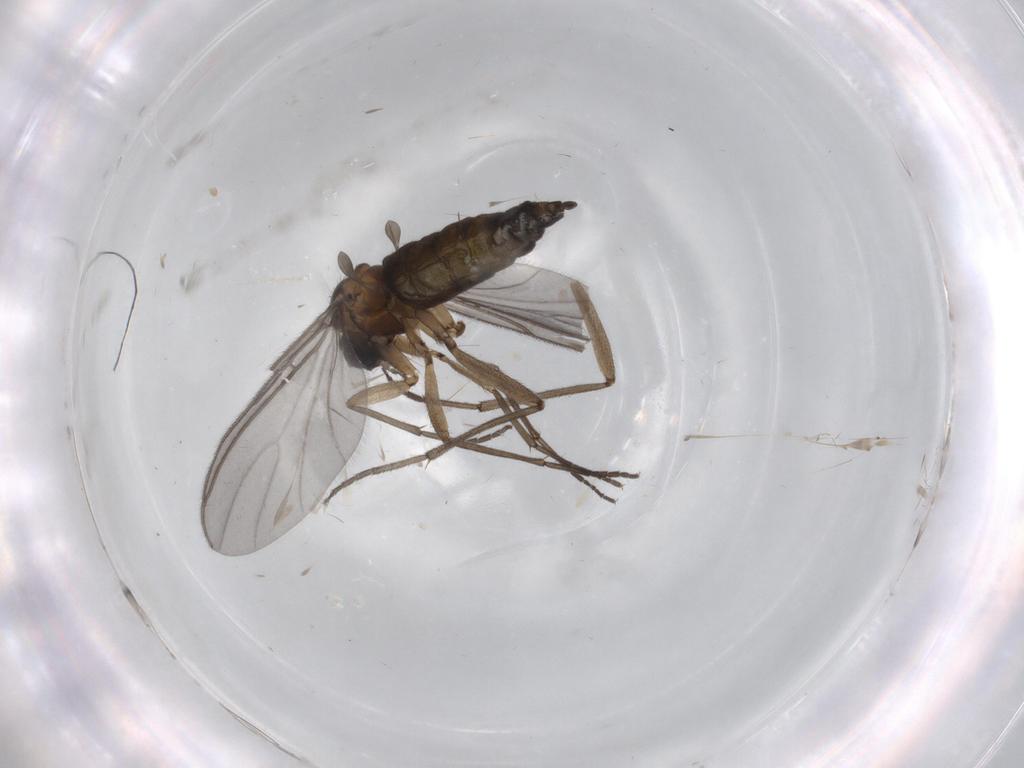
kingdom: Animalia
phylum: Arthropoda
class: Insecta
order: Diptera
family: Sciaridae
